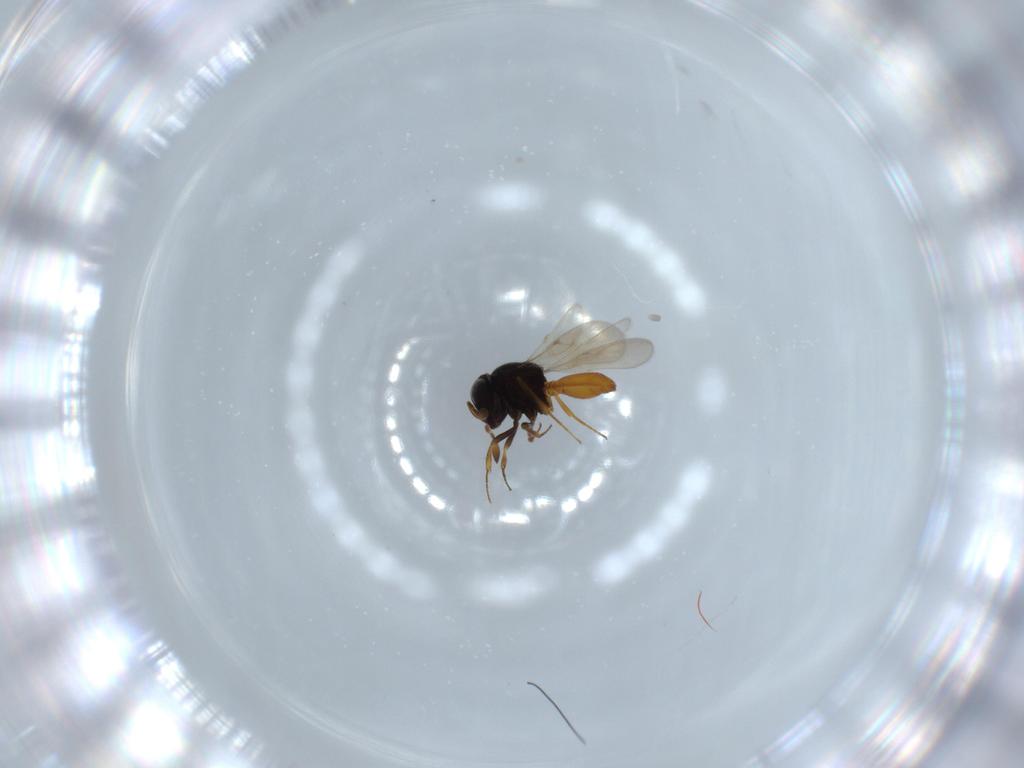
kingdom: Animalia
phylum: Arthropoda
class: Insecta
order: Hymenoptera
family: Scelionidae
